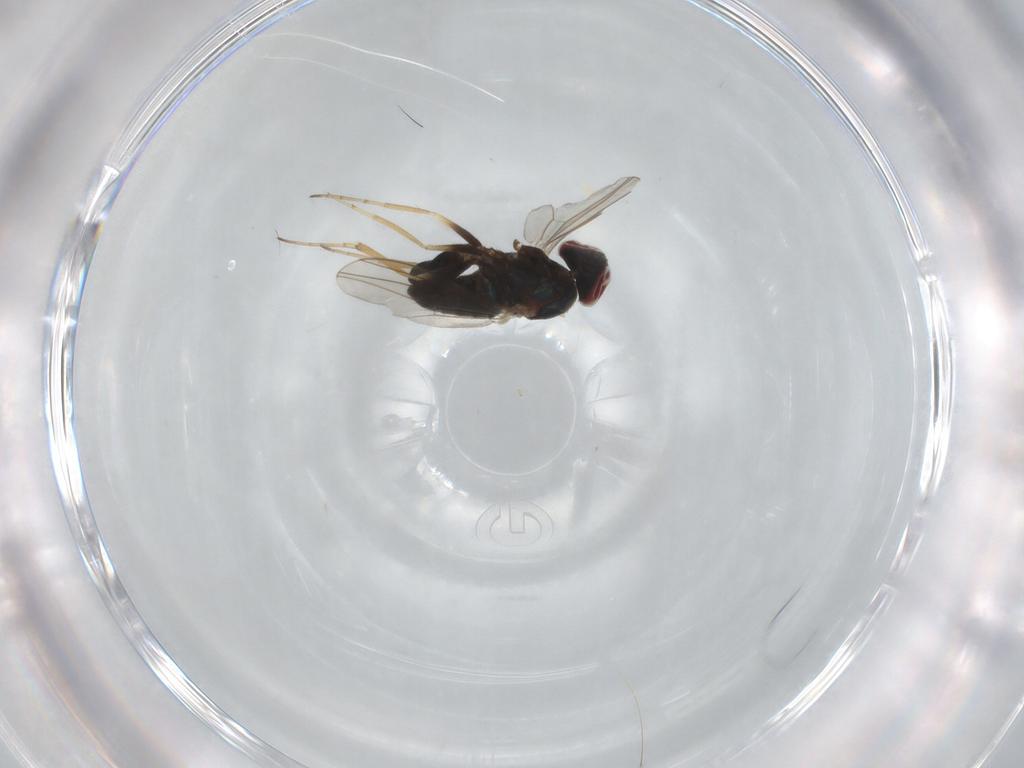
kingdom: Animalia
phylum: Arthropoda
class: Insecta
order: Diptera
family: Dolichopodidae
